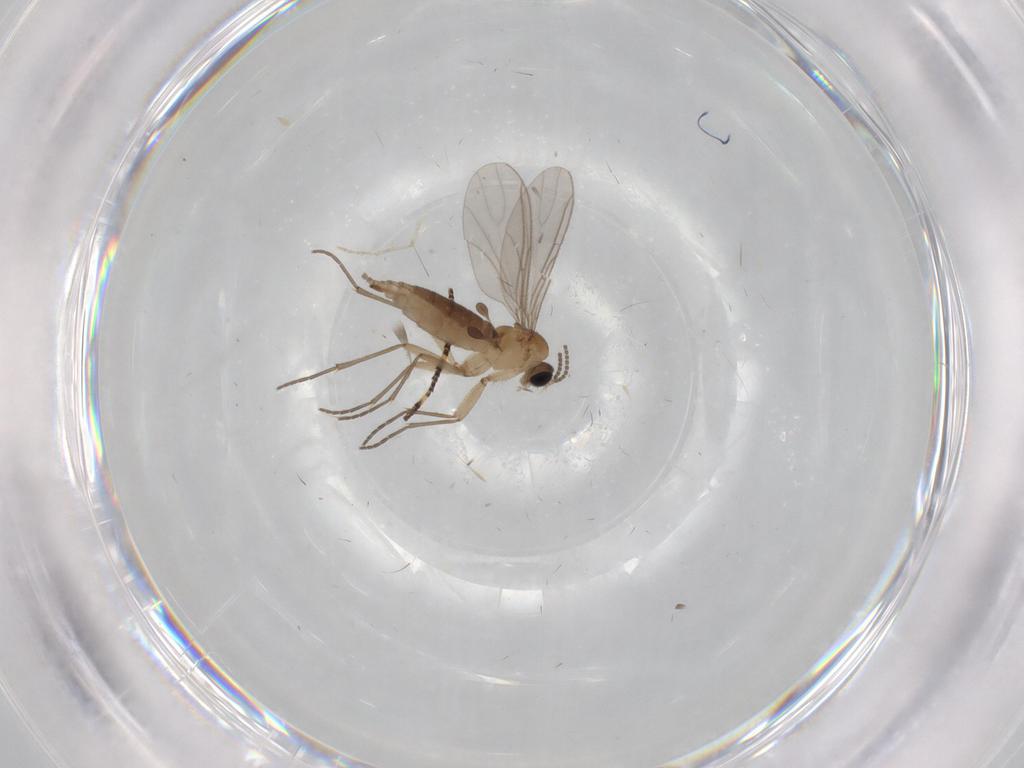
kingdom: Animalia
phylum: Arthropoda
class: Insecta
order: Diptera
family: Sciaridae
